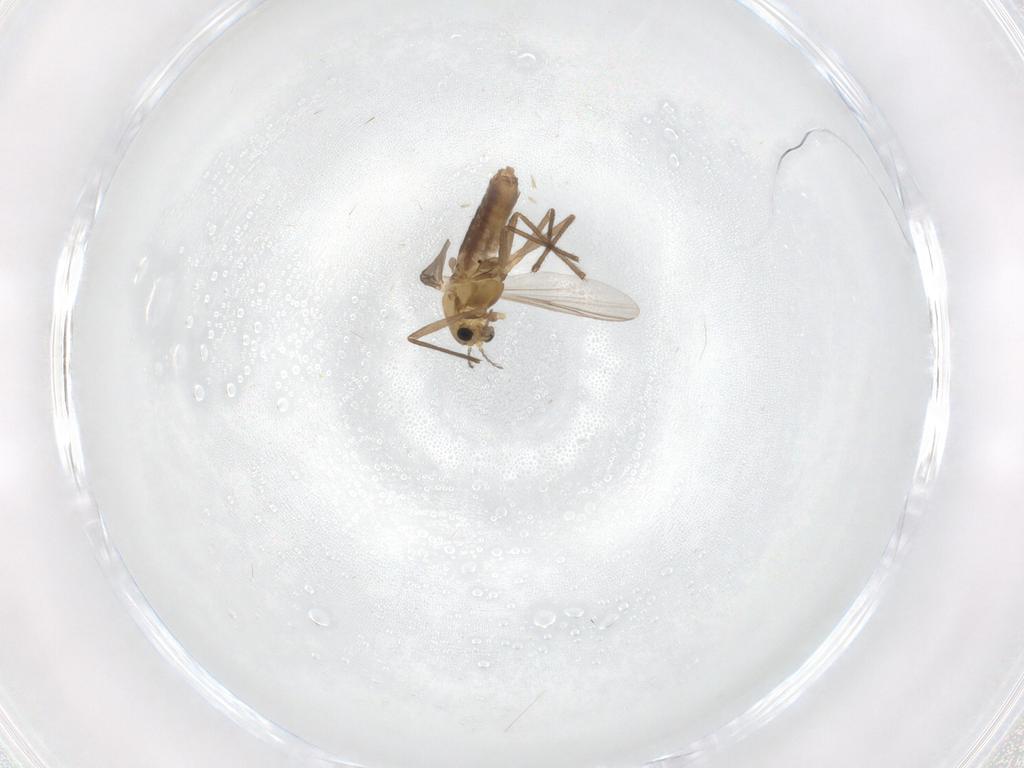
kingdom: Animalia
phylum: Arthropoda
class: Insecta
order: Diptera
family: Chironomidae
